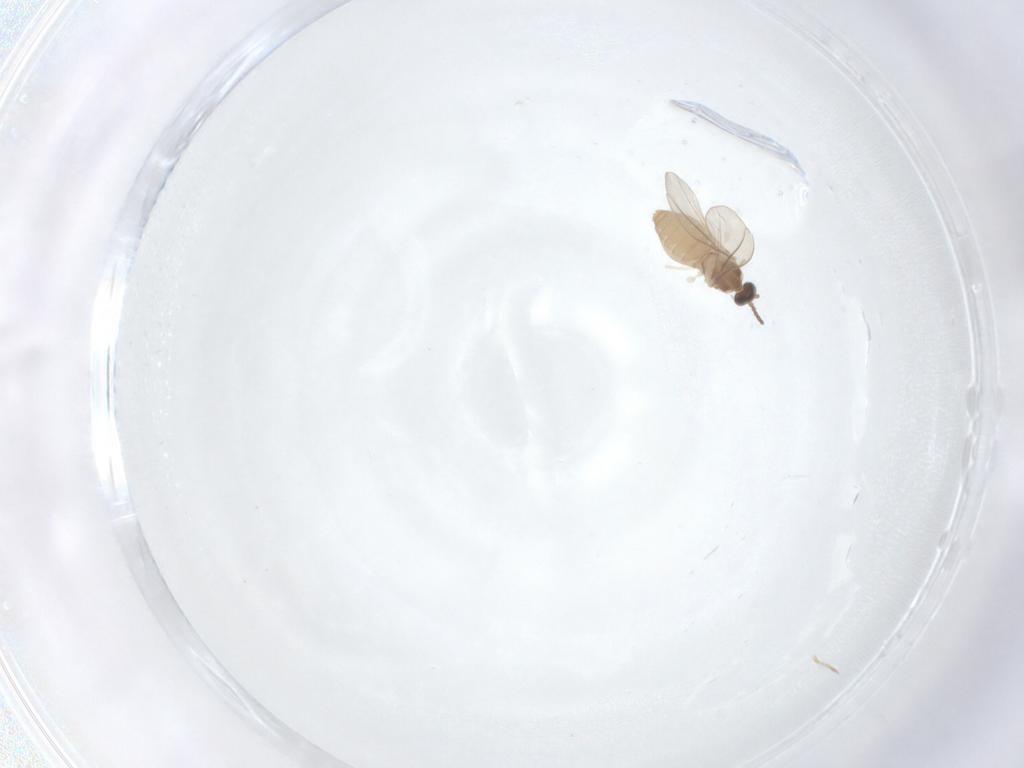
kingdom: Animalia
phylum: Arthropoda
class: Insecta
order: Diptera
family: Cecidomyiidae
